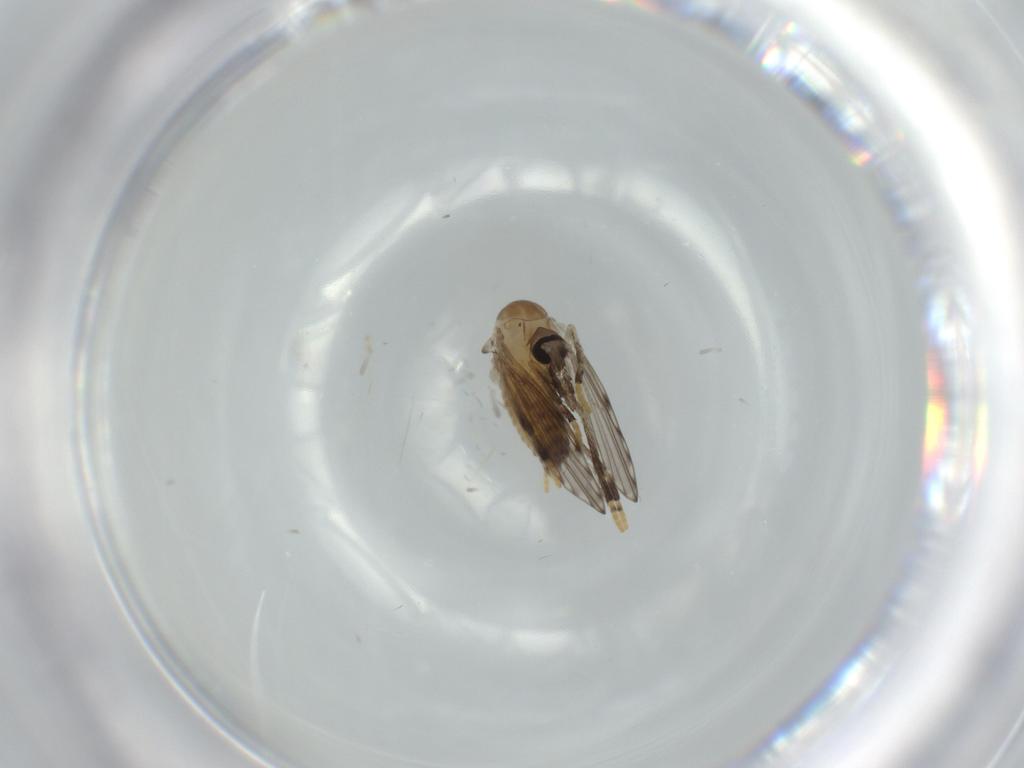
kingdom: Animalia
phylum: Arthropoda
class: Insecta
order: Diptera
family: Psychodidae
